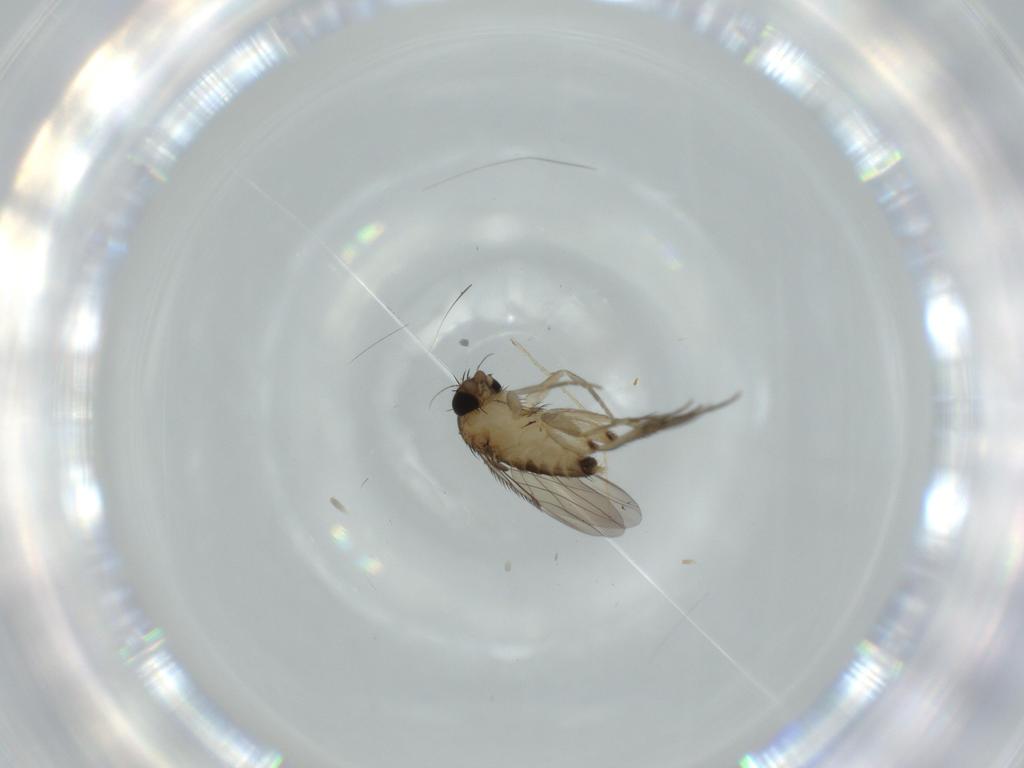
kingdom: Animalia
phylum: Arthropoda
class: Insecta
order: Diptera
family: Phoridae
